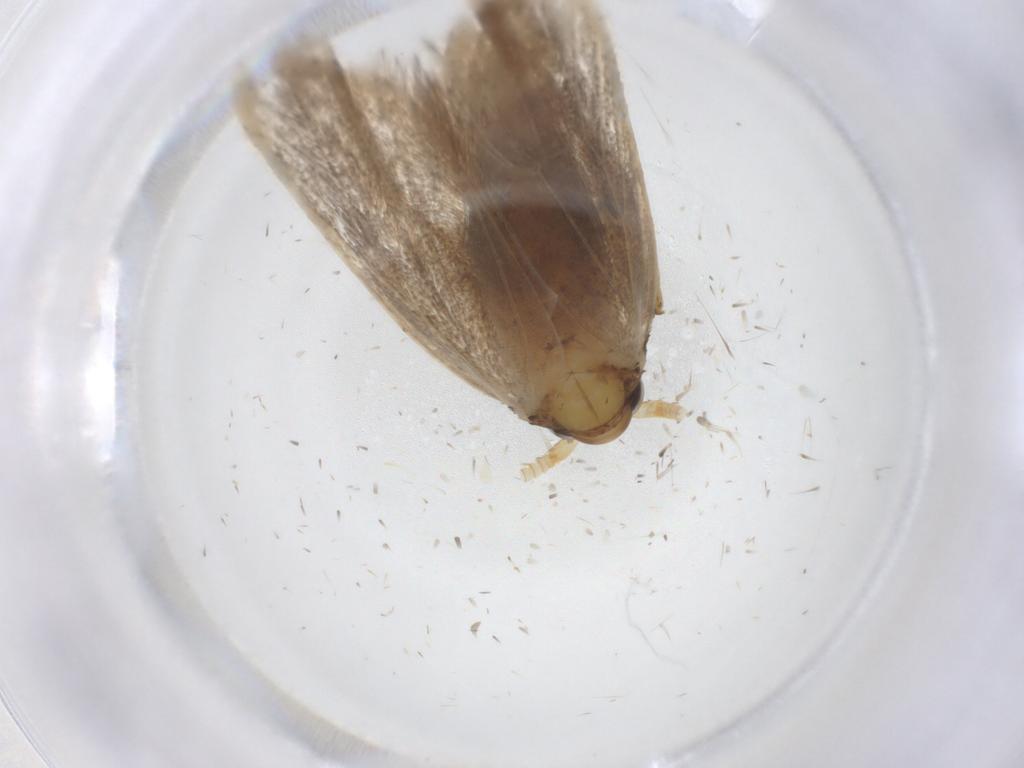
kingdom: Animalia
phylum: Arthropoda
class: Insecta
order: Lepidoptera
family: Lecithoceridae
